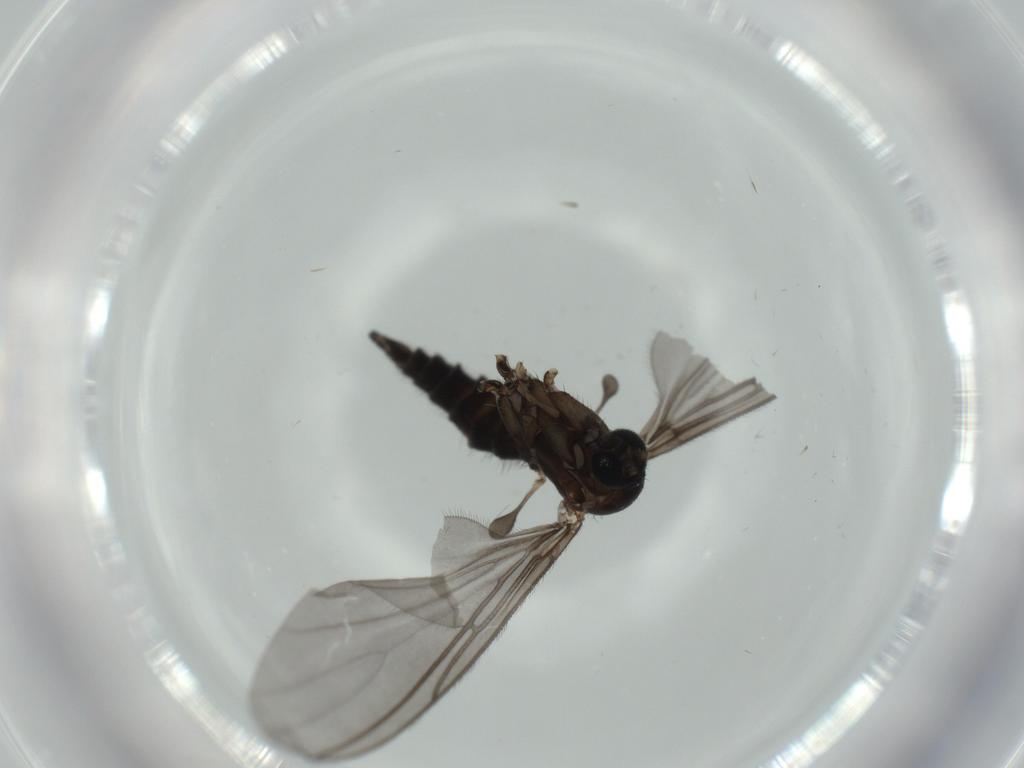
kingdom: Animalia
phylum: Arthropoda
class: Insecta
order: Diptera
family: Sciaridae
